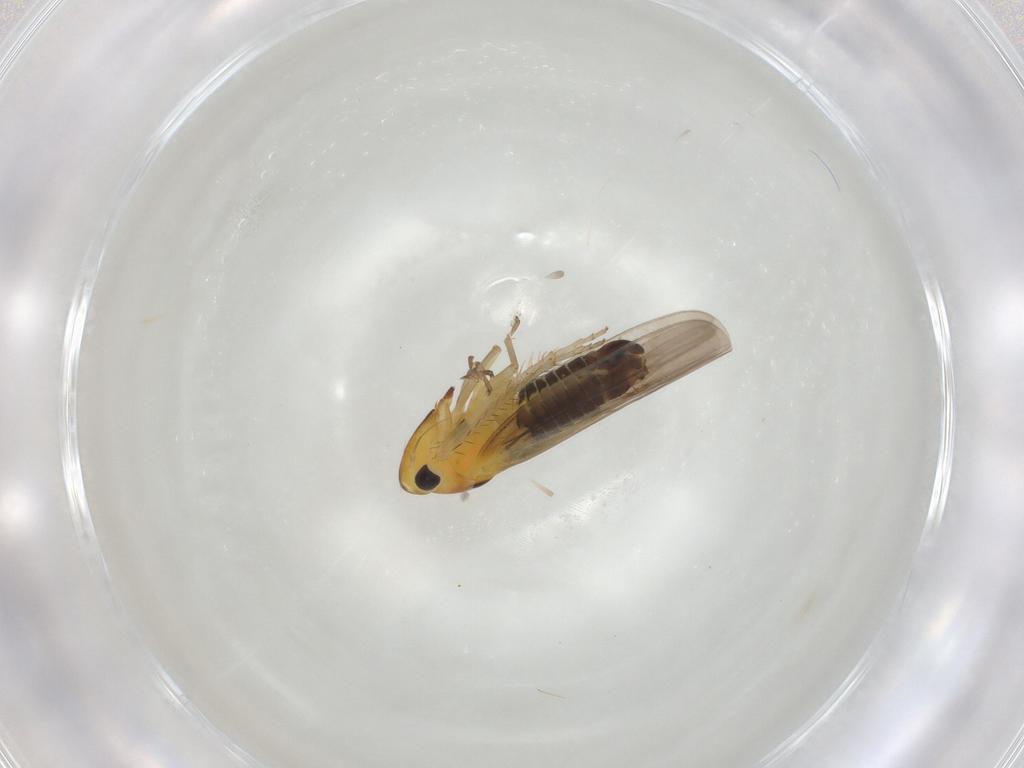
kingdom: Animalia
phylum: Arthropoda
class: Insecta
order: Hemiptera
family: Cicadellidae
